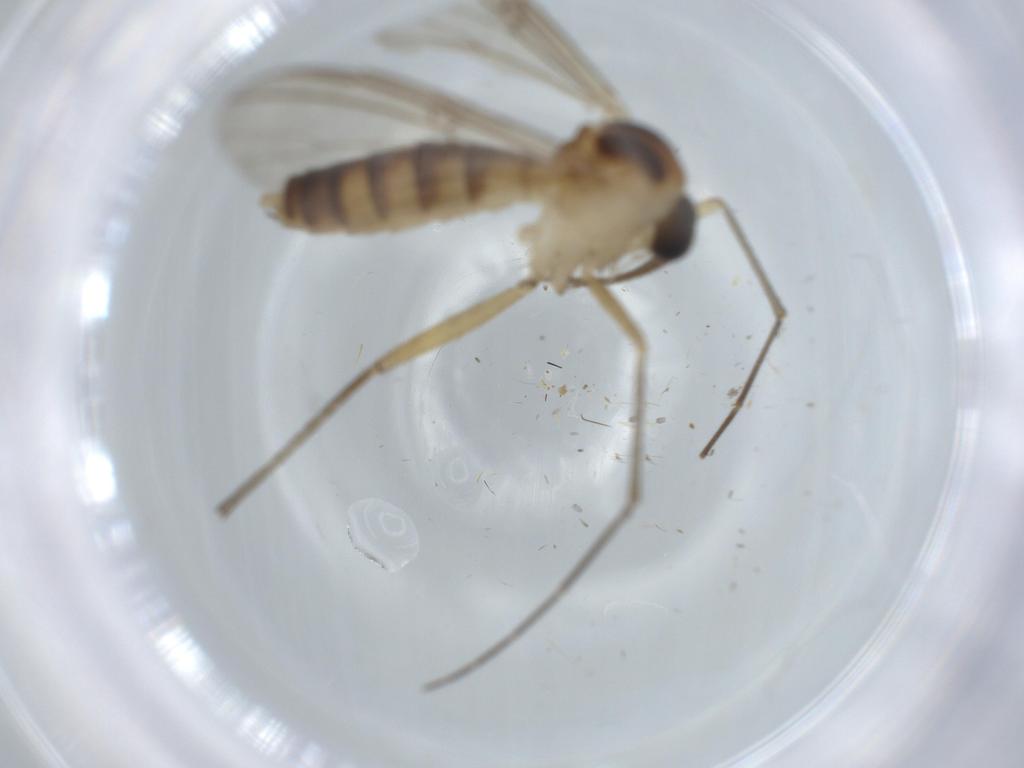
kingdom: Animalia
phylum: Arthropoda
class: Insecta
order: Diptera
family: Phoridae
